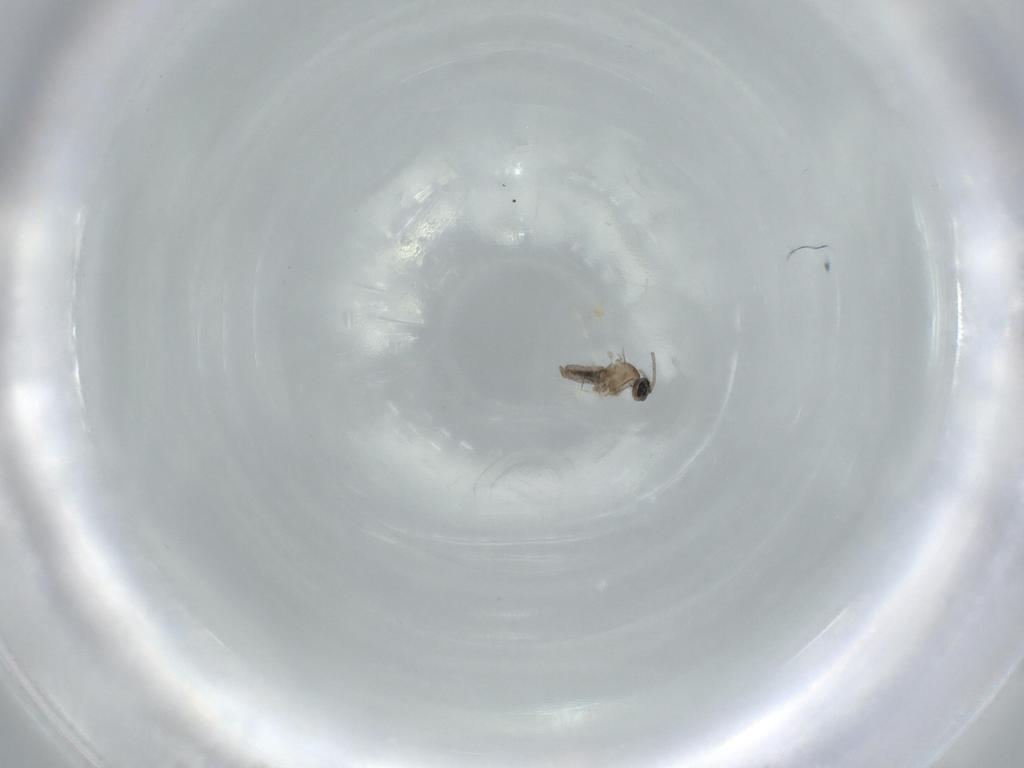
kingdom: Animalia
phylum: Arthropoda
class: Insecta
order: Diptera
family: Cecidomyiidae
